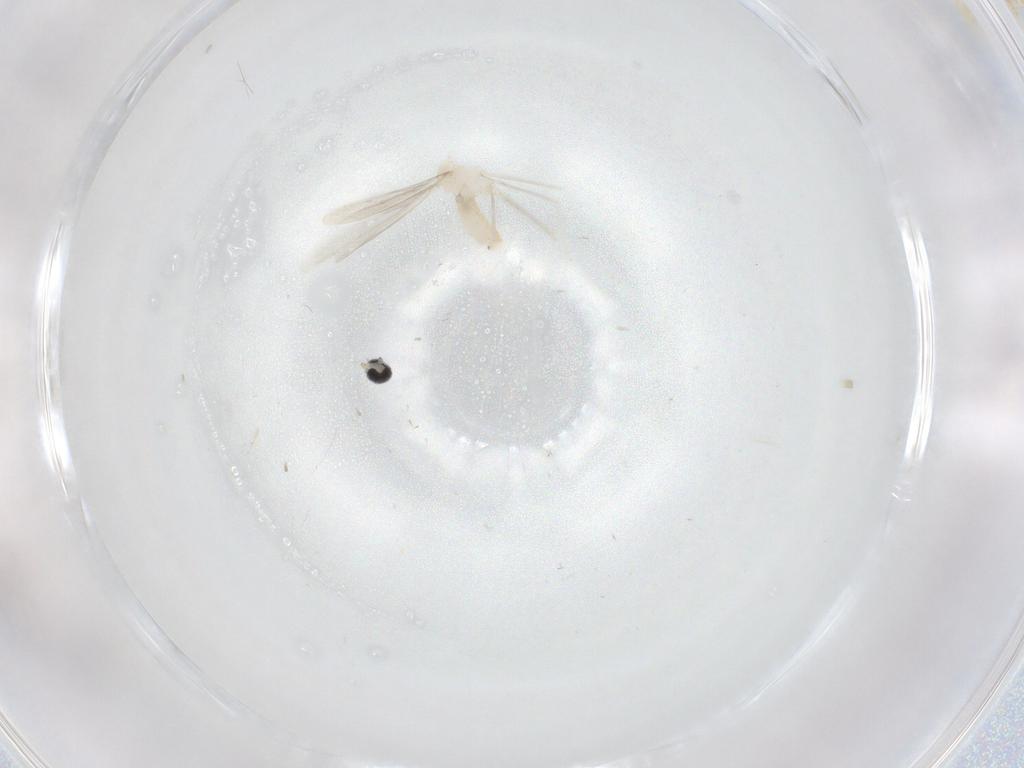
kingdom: Animalia
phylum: Arthropoda
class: Insecta
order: Diptera
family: Cecidomyiidae
